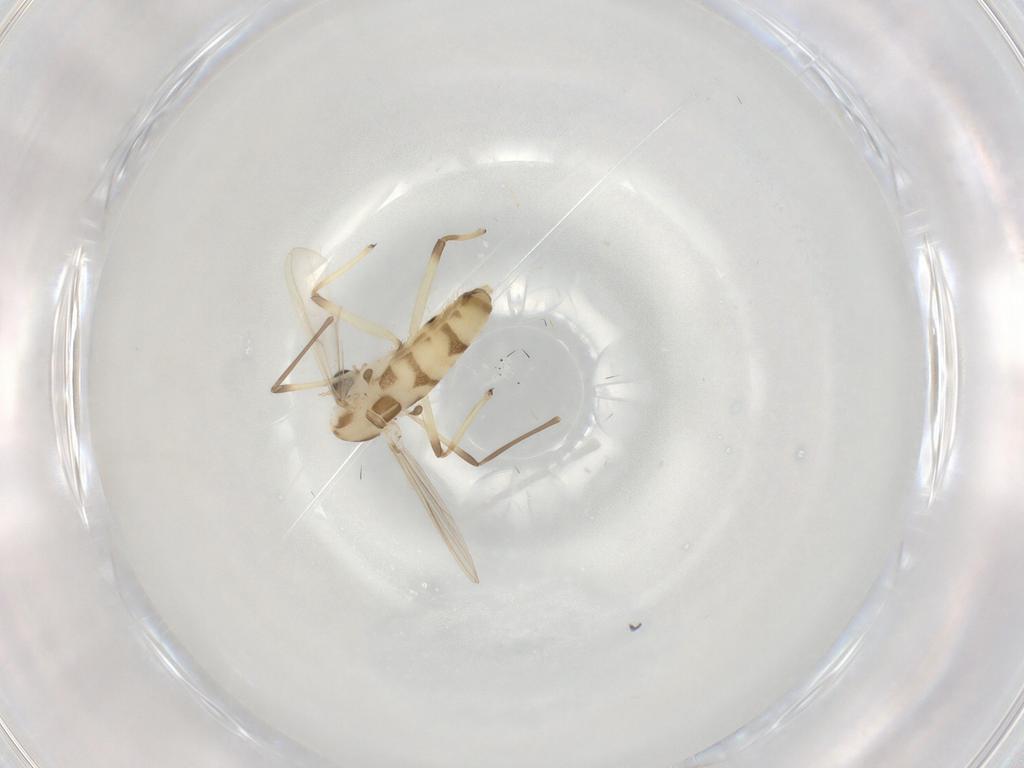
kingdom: Animalia
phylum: Arthropoda
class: Insecta
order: Diptera
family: Chironomidae
